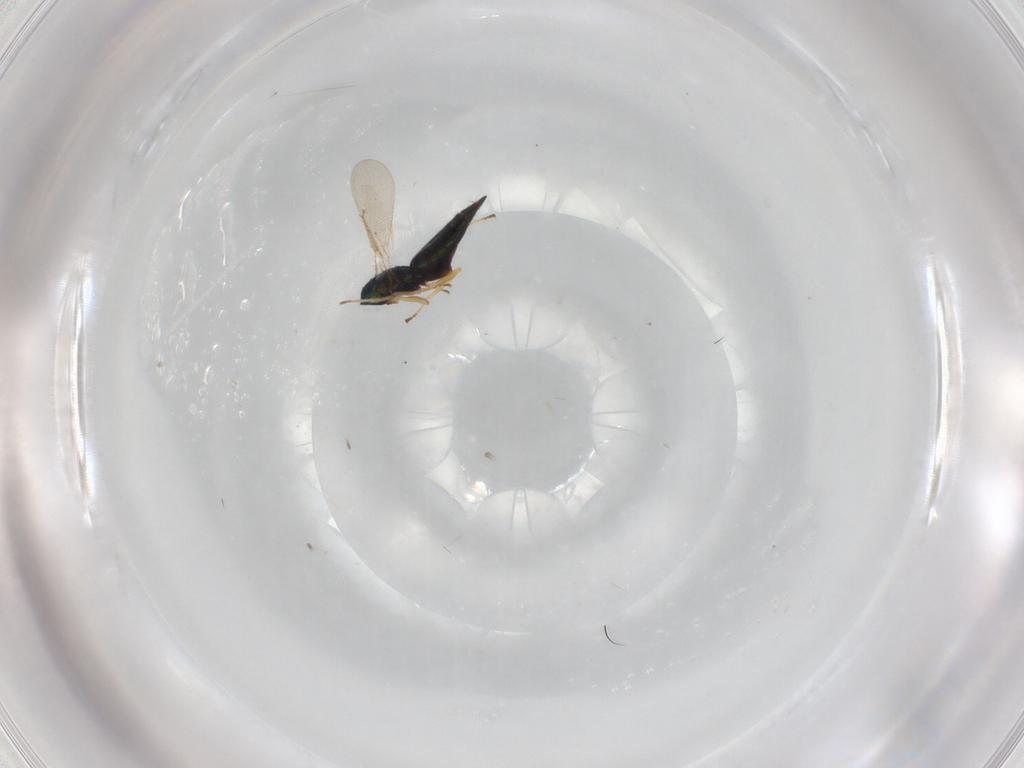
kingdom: Animalia
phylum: Arthropoda
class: Insecta
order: Hymenoptera
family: Eulophidae
